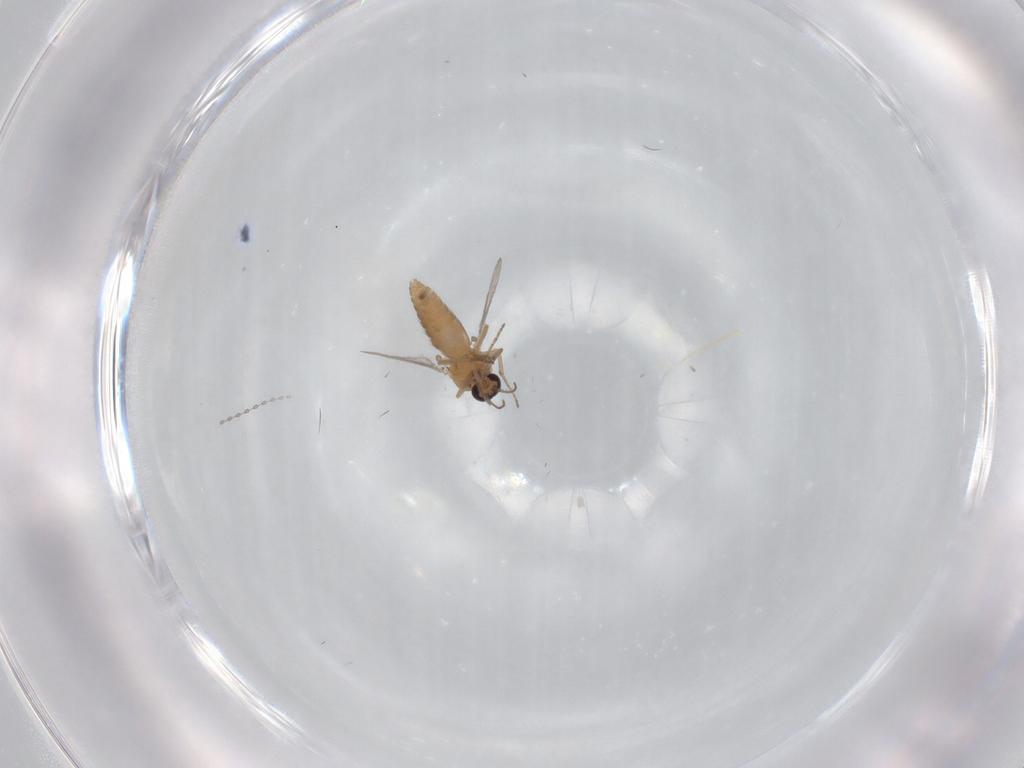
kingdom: Animalia
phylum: Arthropoda
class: Insecta
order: Diptera
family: Ceratopogonidae
